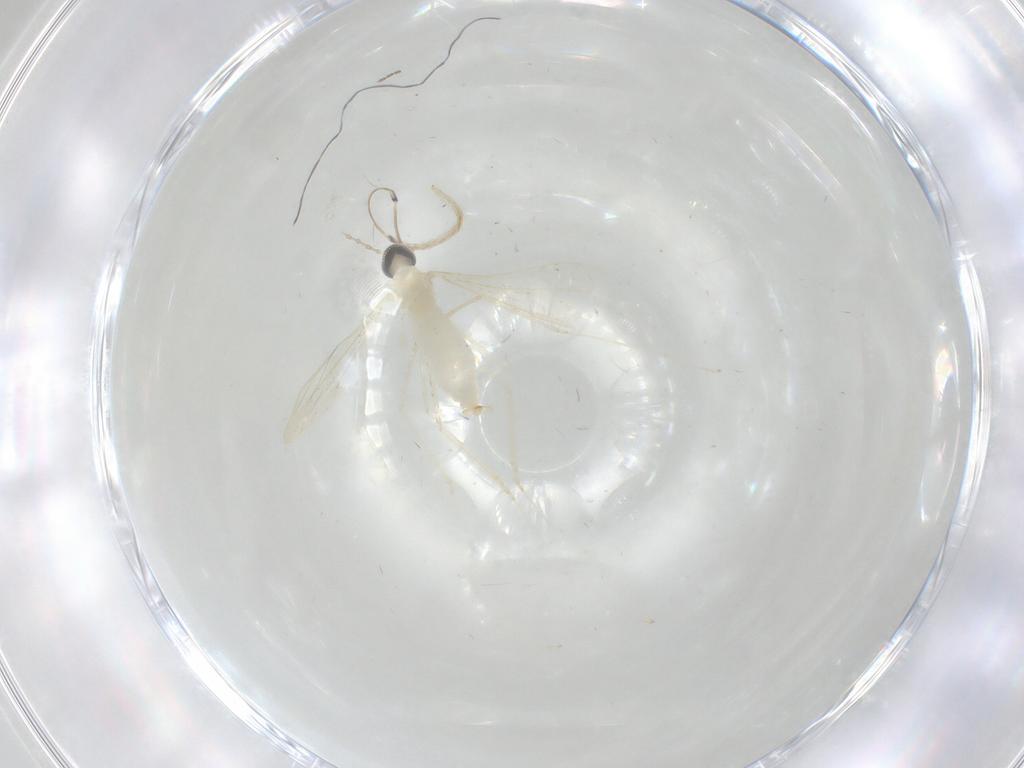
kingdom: Animalia
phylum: Arthropoda
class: Insecta
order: Diptera
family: Cecidomyiidae
